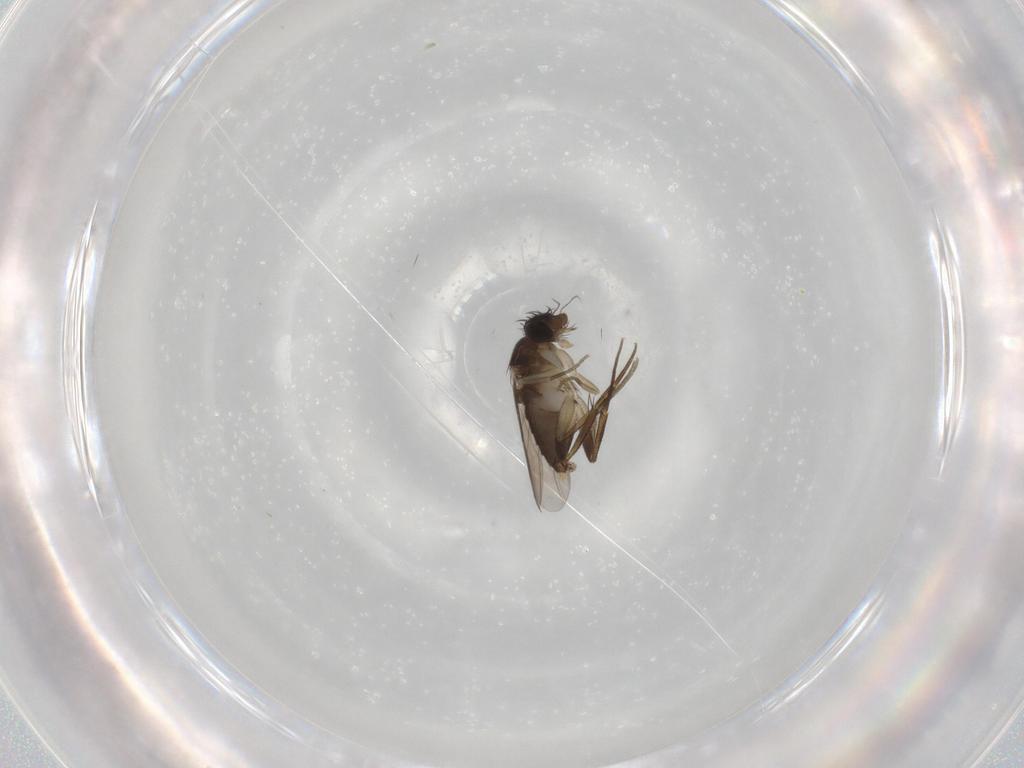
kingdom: Animalia
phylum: Arthropoda
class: Insecta
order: Diptera
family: Phoridae
